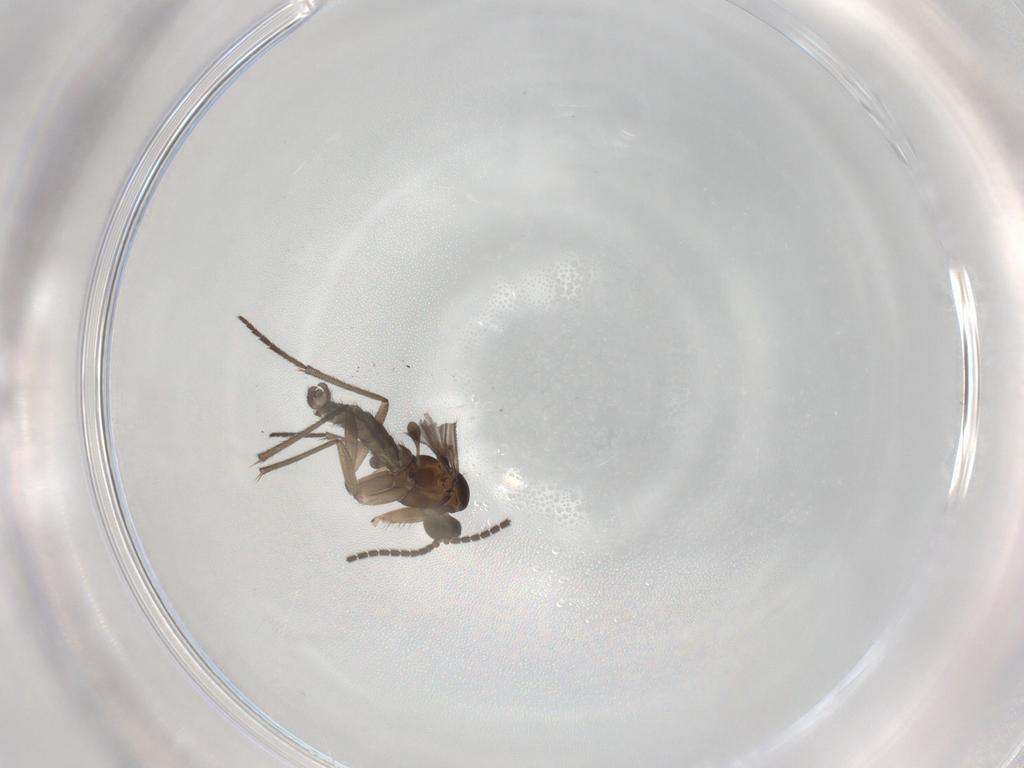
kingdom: Animalia
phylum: Arthropoda
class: Insecta
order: Diptera
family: Sciaridae
